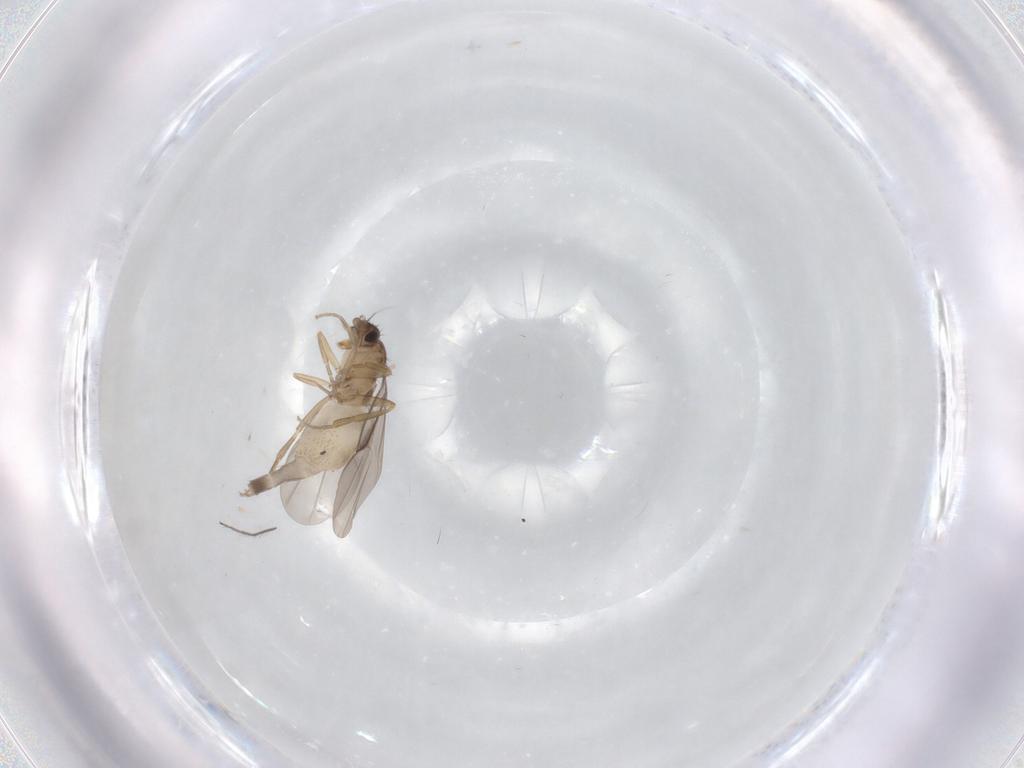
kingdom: Animalia
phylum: Arthropoda
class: Insecta
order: Diptera
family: Phoridae
